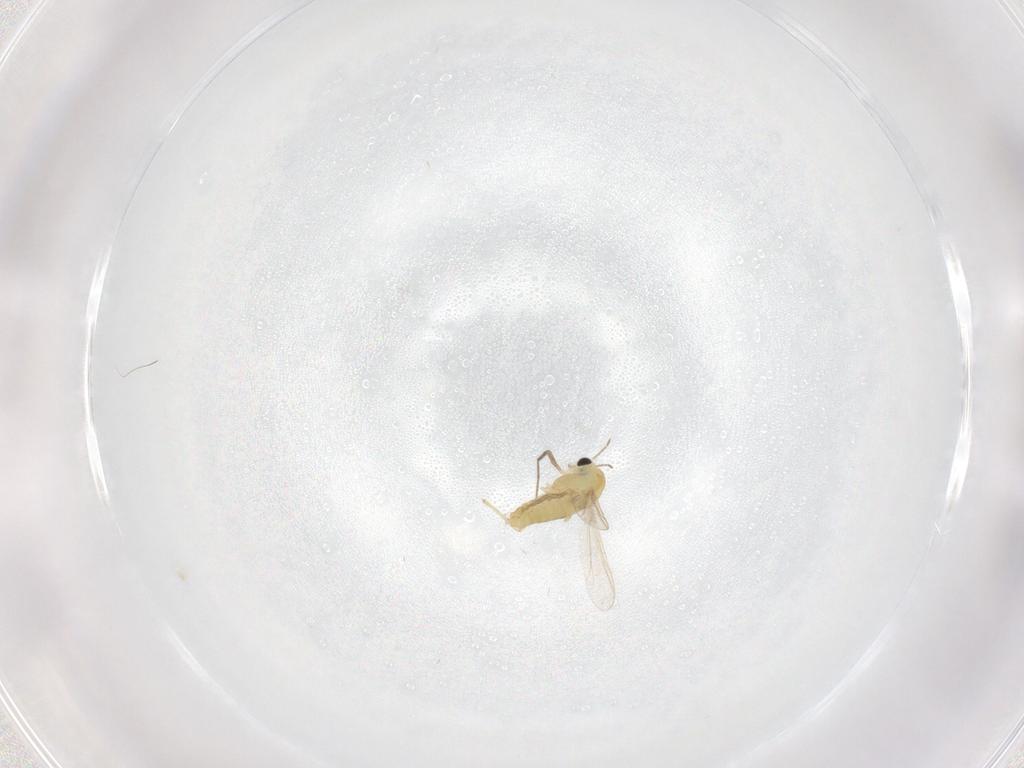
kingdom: Animalia
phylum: Arthropoda
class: Insecta
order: Diptera
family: Chironomidae
